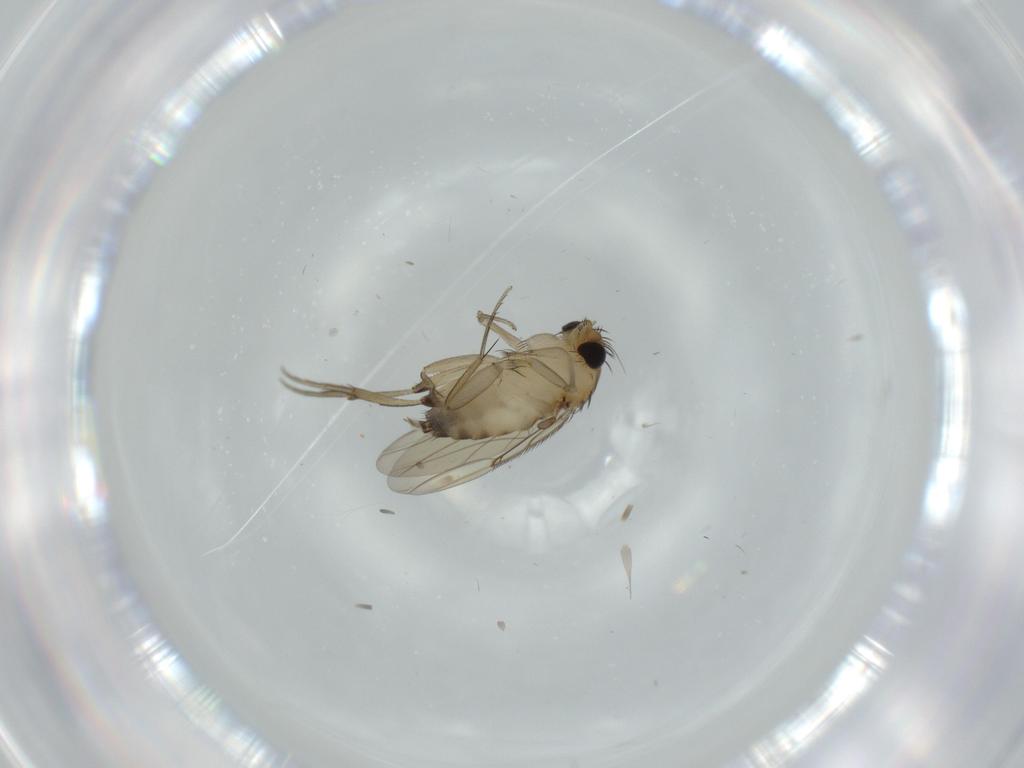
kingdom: Animalia
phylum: Arthropoda
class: Insecta
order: Diptera
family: Phoridae
